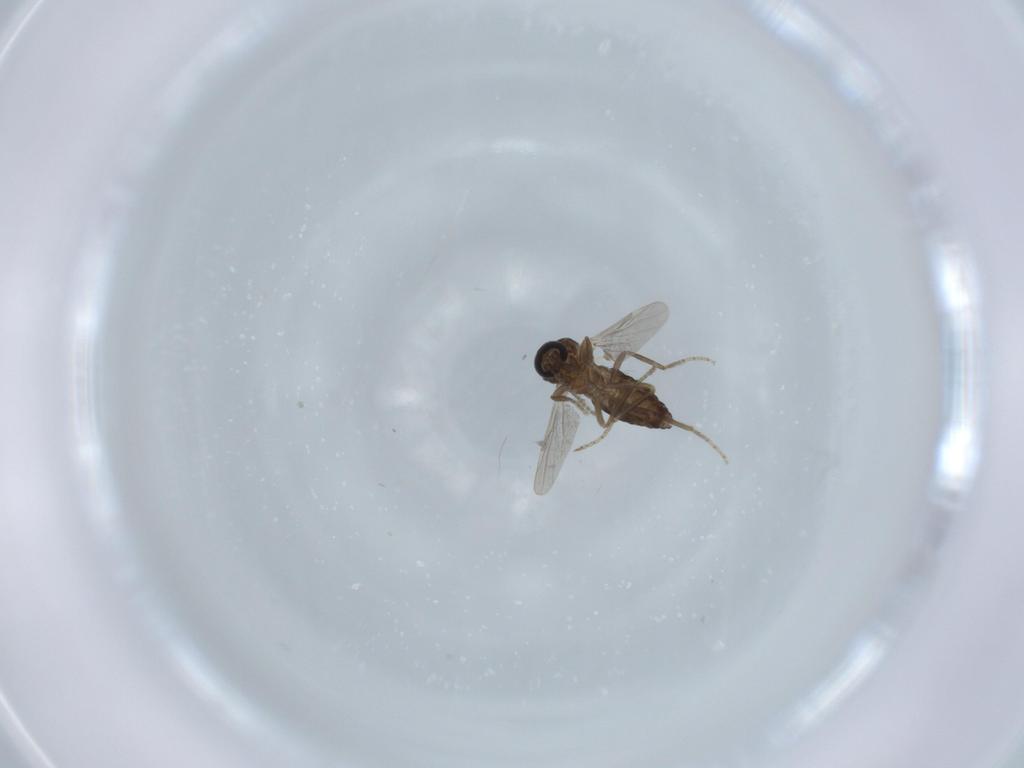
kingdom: Animalia
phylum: Arthropoda
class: Insecta
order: Diptera
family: Ceratopogonidae
